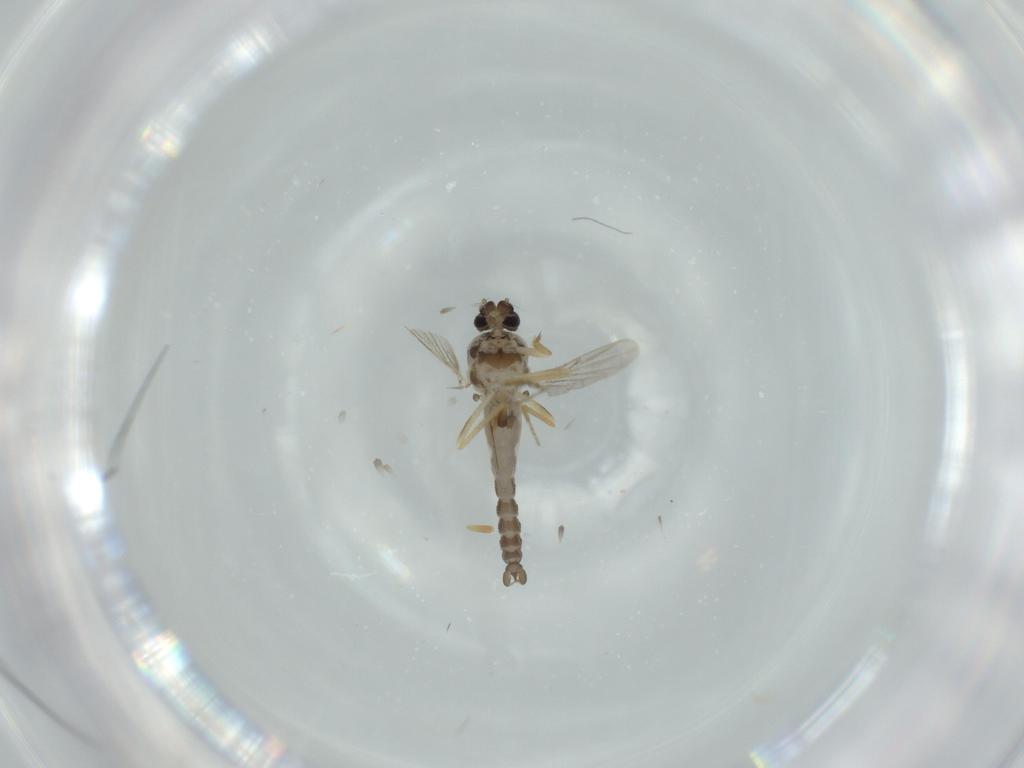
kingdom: Animalia
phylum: Arthropoda
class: Insecta
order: Diptera
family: Ceratopogonidae
